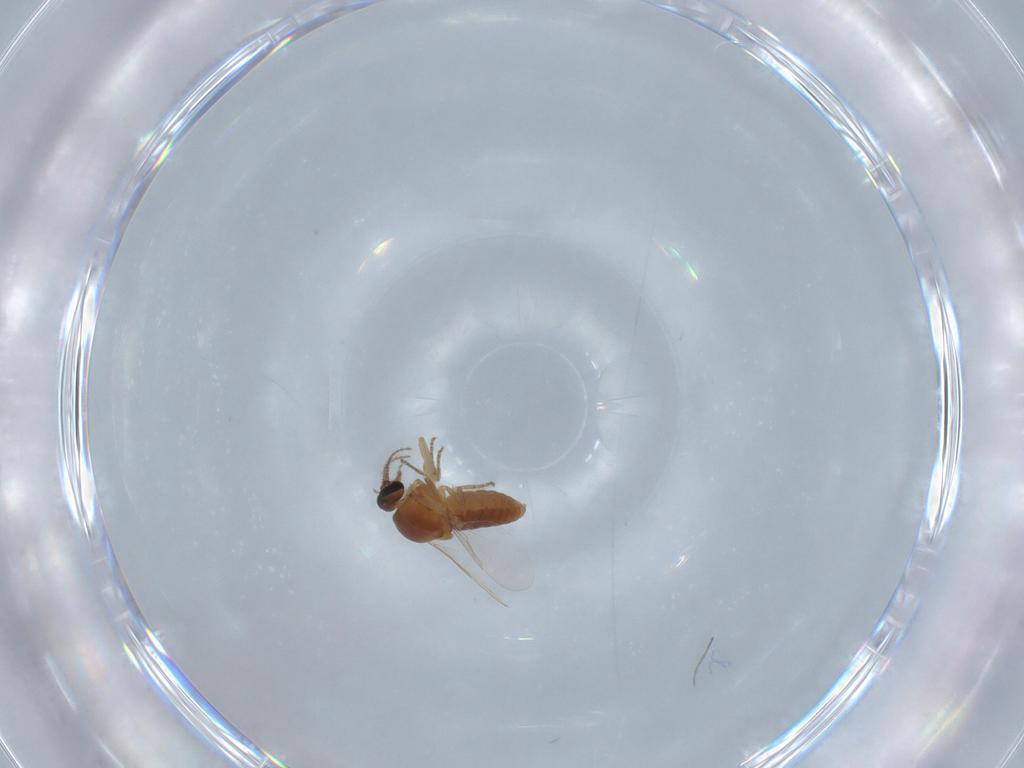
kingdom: Animalia
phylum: Arthropoda
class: Insecta
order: Diptera
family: Ceratopogonidae
